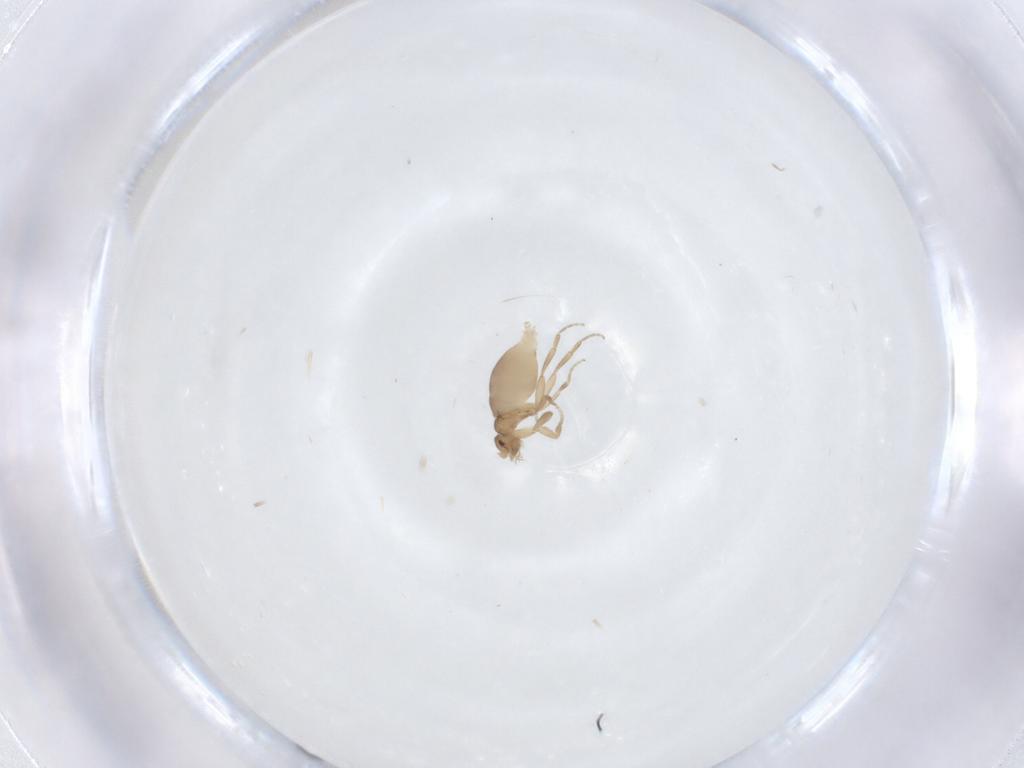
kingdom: Animalia
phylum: Arthropoda
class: Insecta
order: Diptera
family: Phoridae
